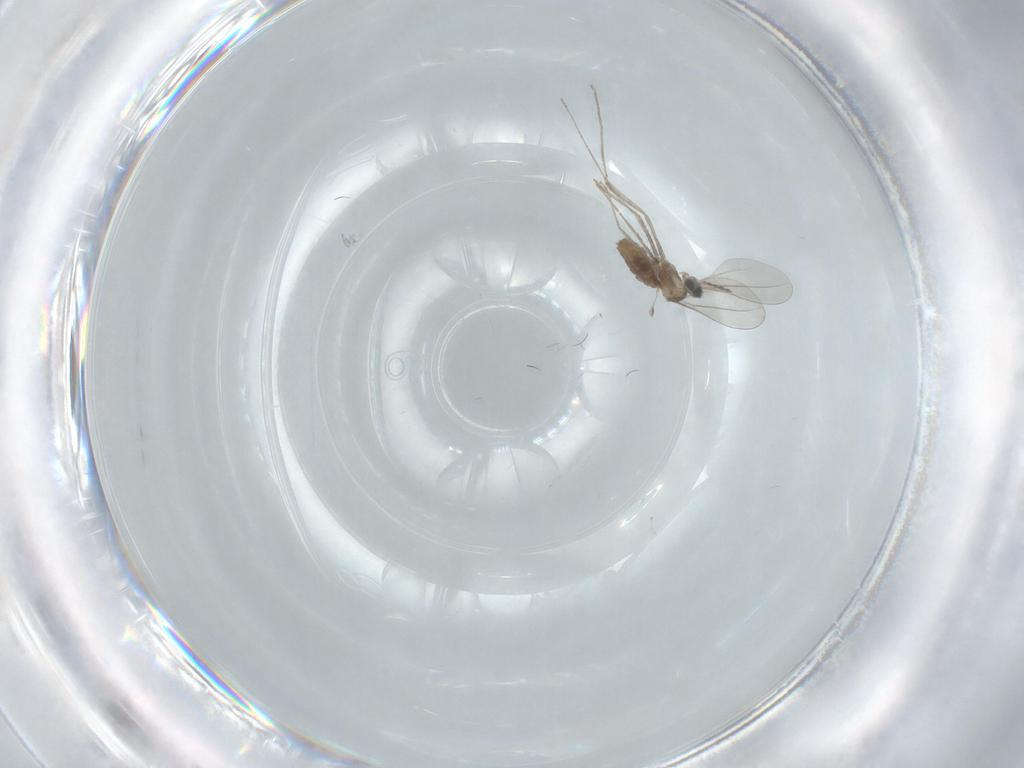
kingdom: Animalia
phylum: Arthropoda
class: Insecta
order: Diptera
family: Cecidomyiidae
